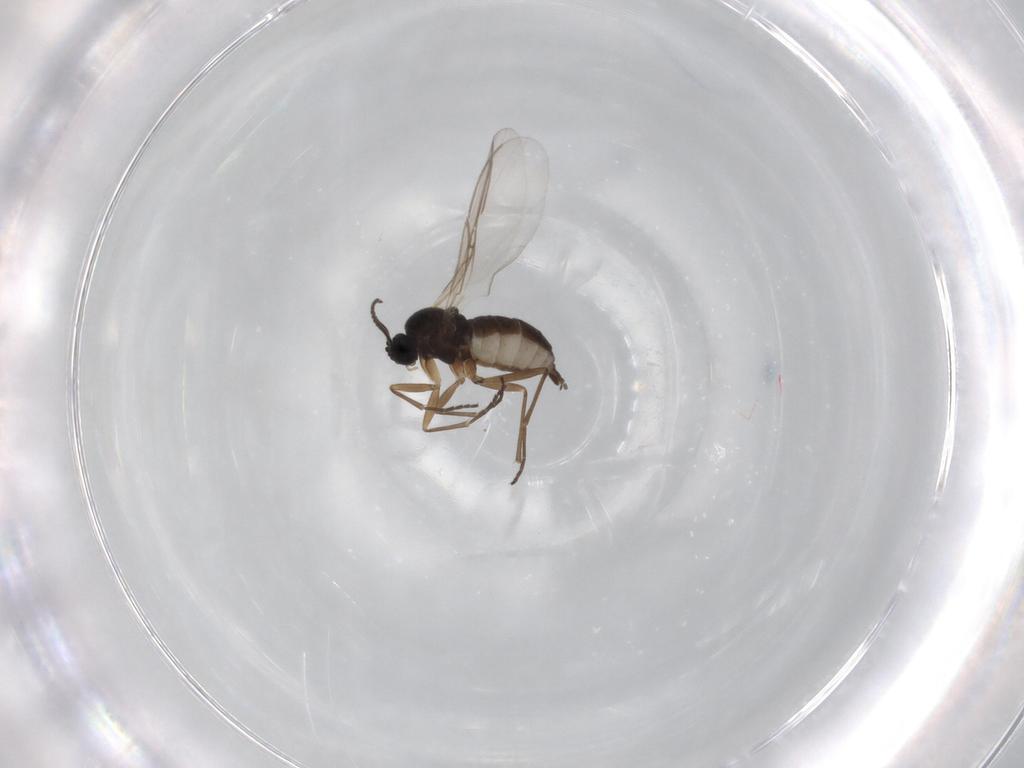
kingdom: Animalia
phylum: Arthropoda
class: Insecta
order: Diptera
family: Sciaridae
